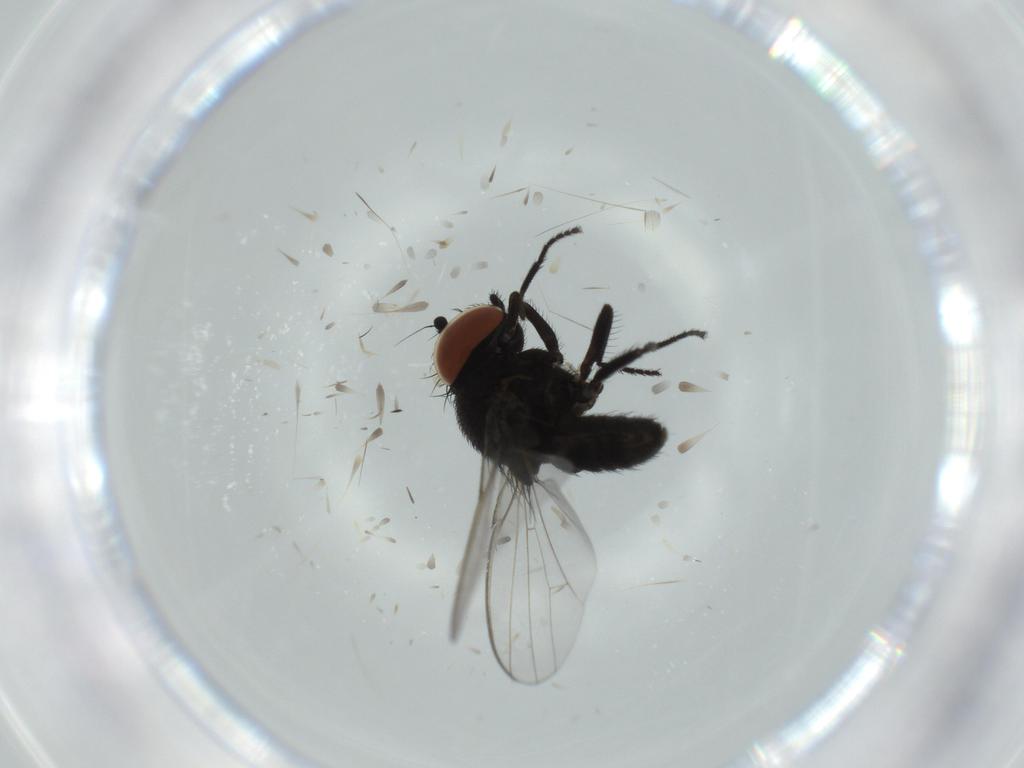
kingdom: Animalia
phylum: Arthropoda
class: Insecta
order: Diptera
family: Milichiidae
